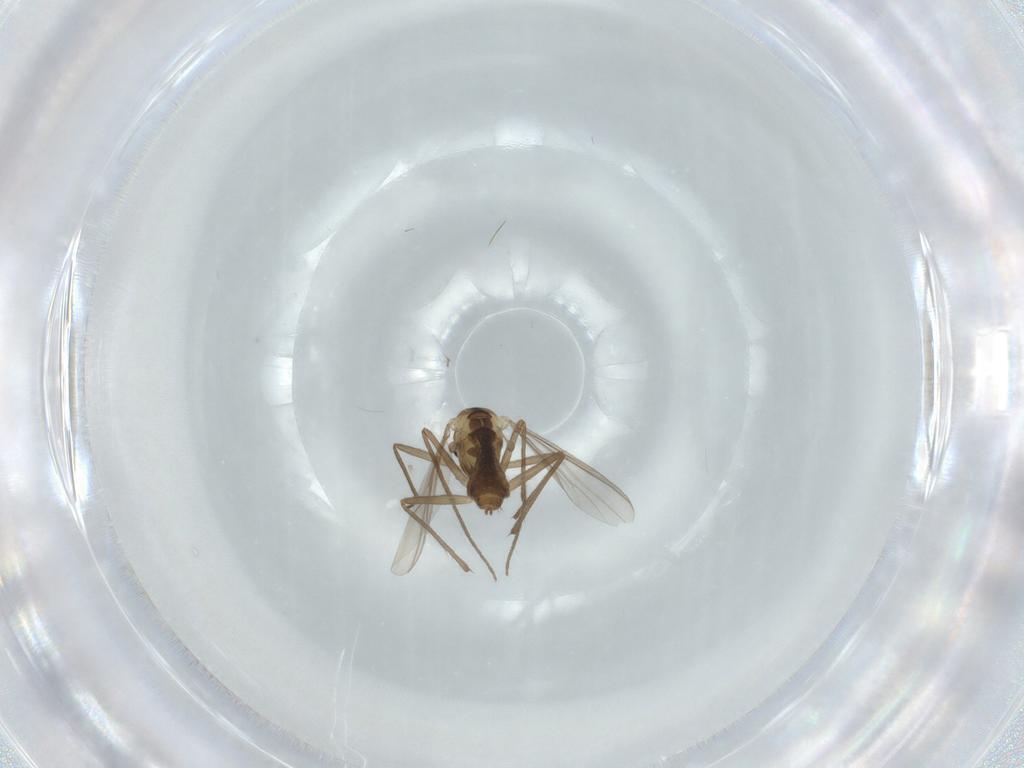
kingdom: Animalia
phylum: Arthropoda
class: Insecta
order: Diptera
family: Chironomidae
